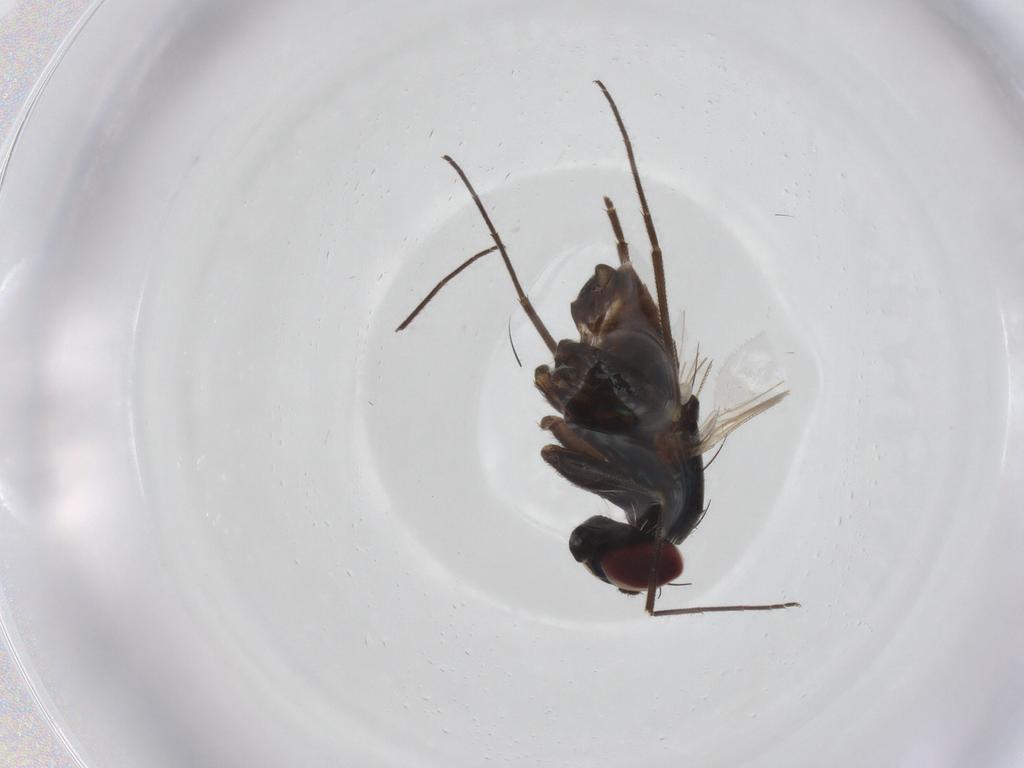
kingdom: Animalia
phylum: Arthropoda
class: Insecta
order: Diptera
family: Dolichopodidae
